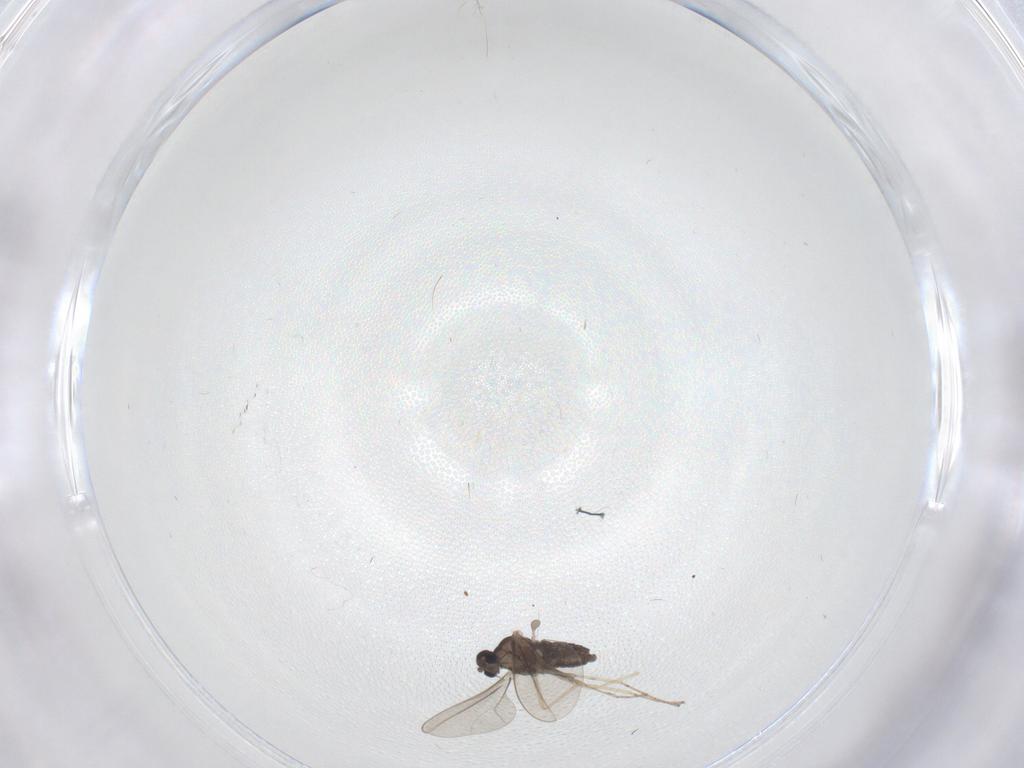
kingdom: Animalia
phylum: Arthropoda
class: Insecta
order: Diptera
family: Cecidomyiidae
